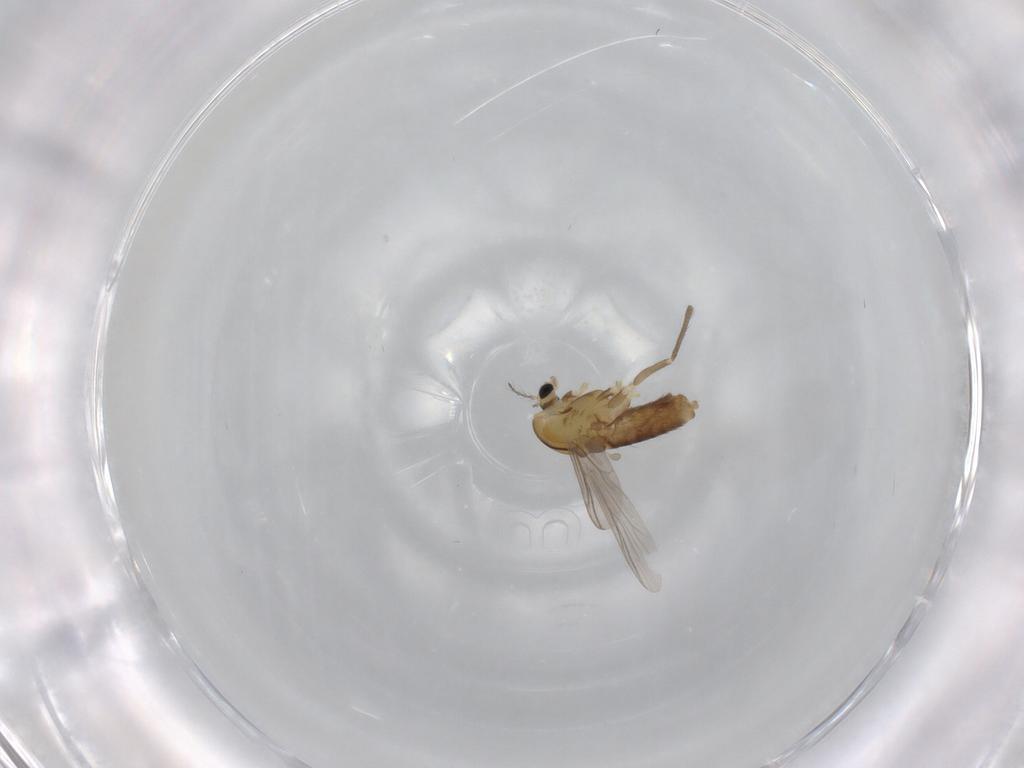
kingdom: Animalia
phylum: Arthropoda
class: Insecta
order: Diptera
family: Chironomidae
